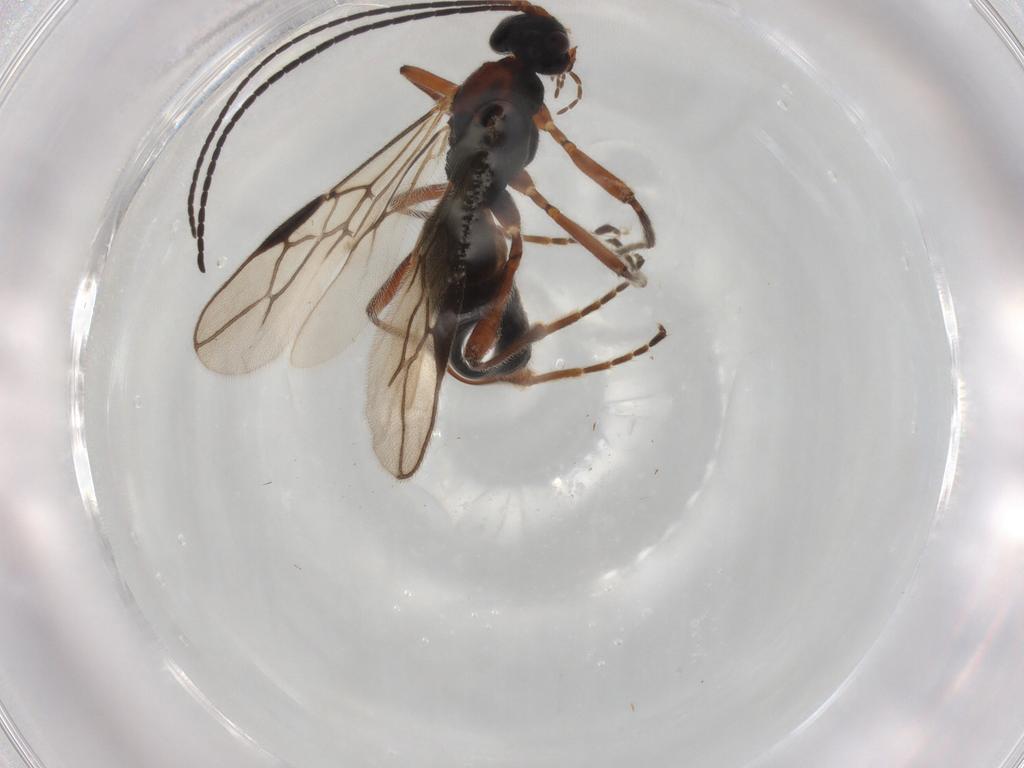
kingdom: Animalia
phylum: Arthropoda
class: Insecta
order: Hymenoptera
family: Braconidae
